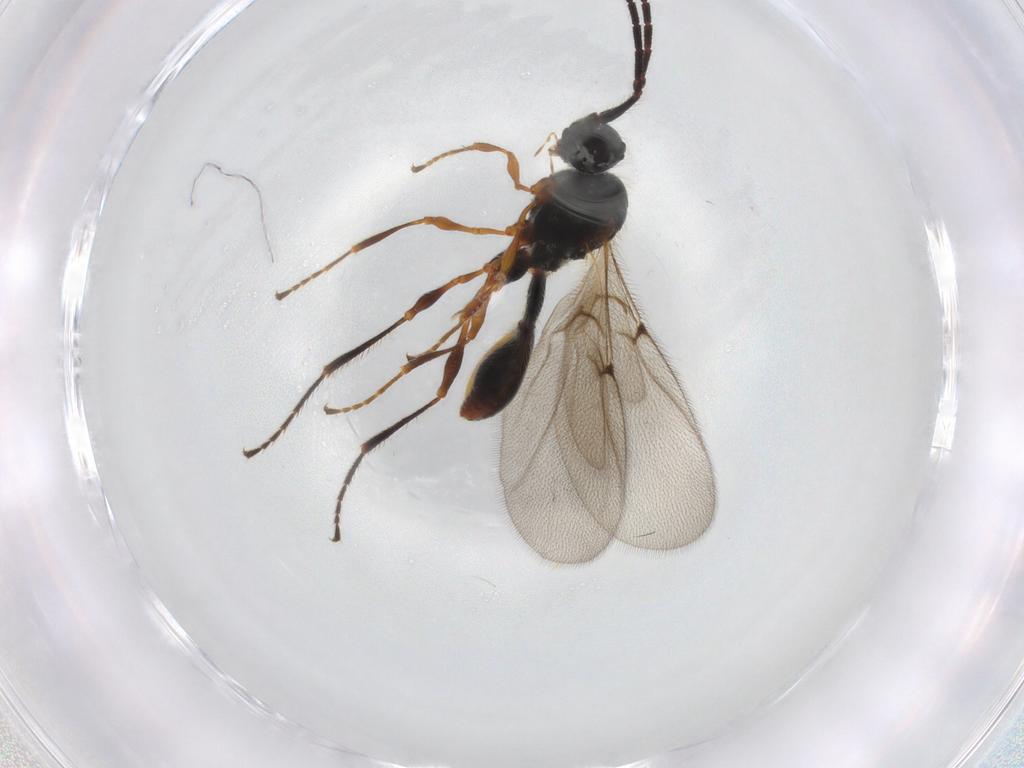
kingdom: Animalia
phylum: Arthropoda
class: Insecta
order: Hymenoptera
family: Diapriidae
